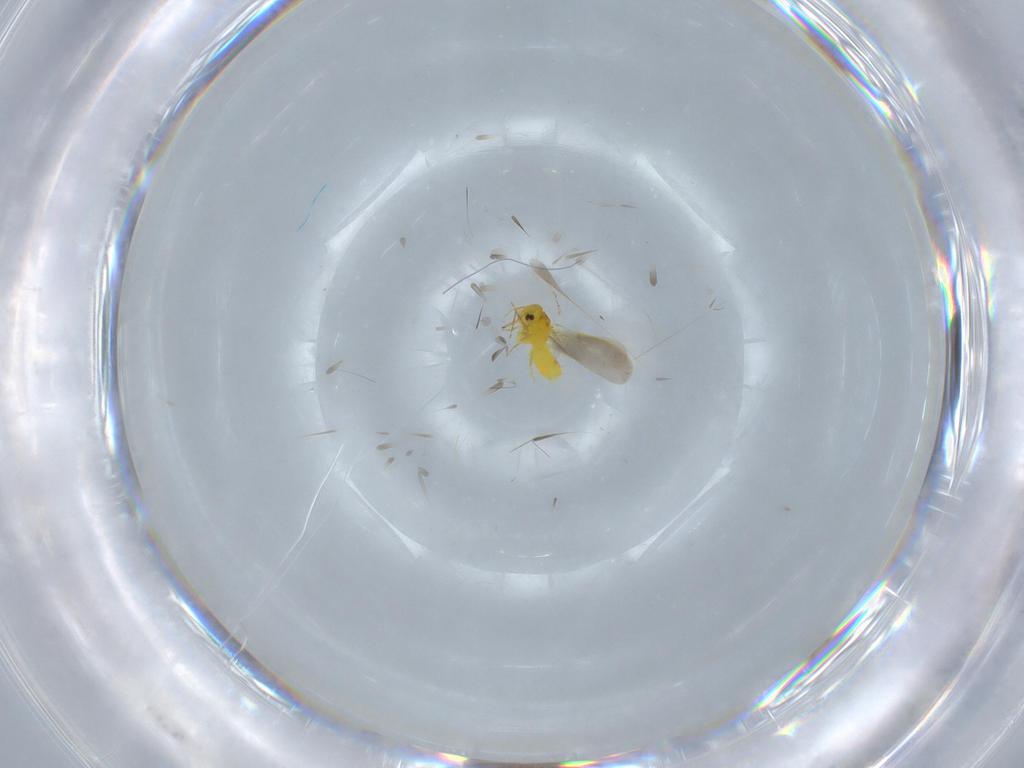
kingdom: Animalia
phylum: Arthropoda
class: Insecta
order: Hemiptera
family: Aleyrodidae
